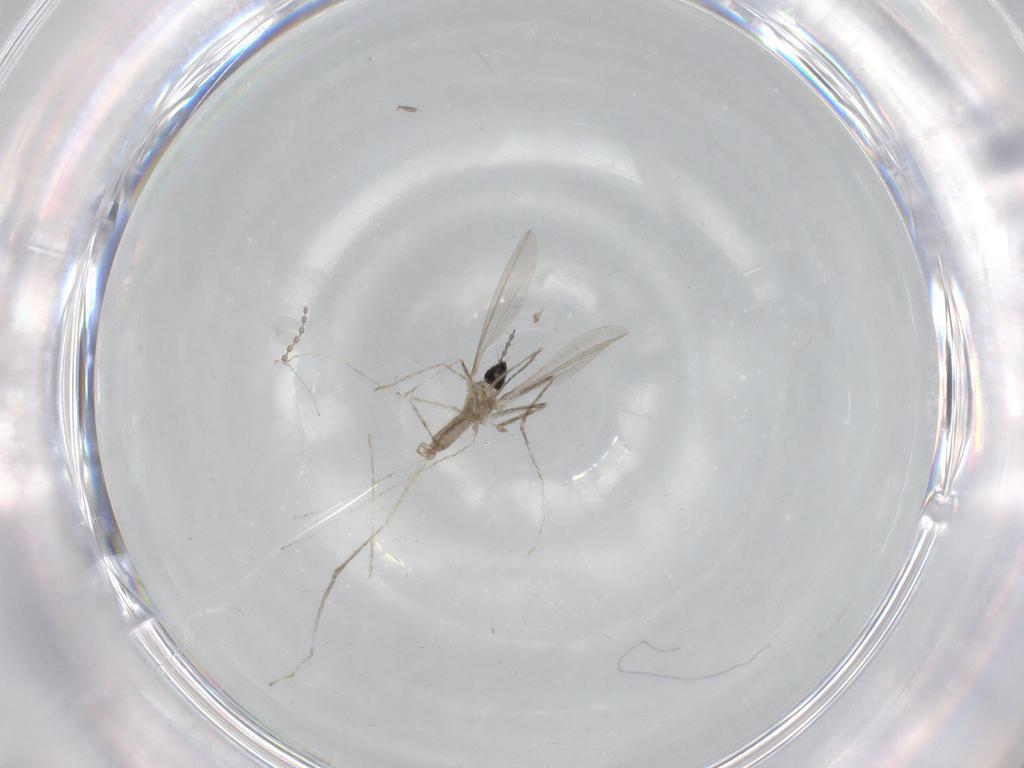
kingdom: Animalia
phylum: Arthropoda
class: Insecta
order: Diptera
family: Cecidomyiidae
